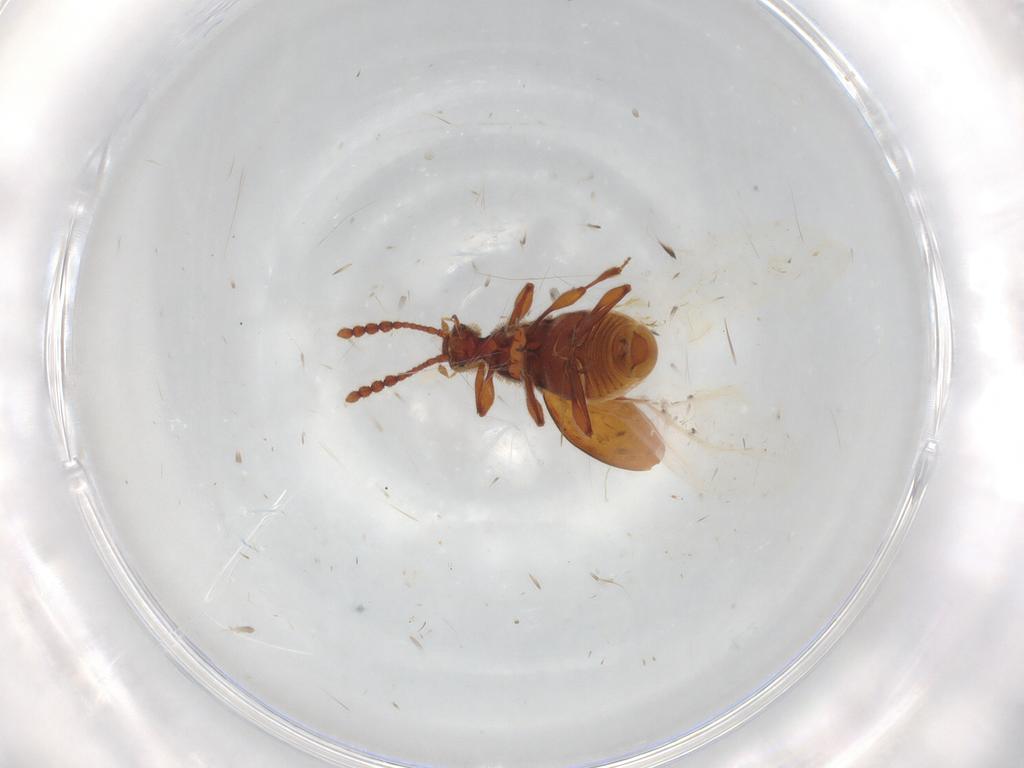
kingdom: Animalia
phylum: Arthropoda
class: Insecta
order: Coleoptera
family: Staphylinidae
